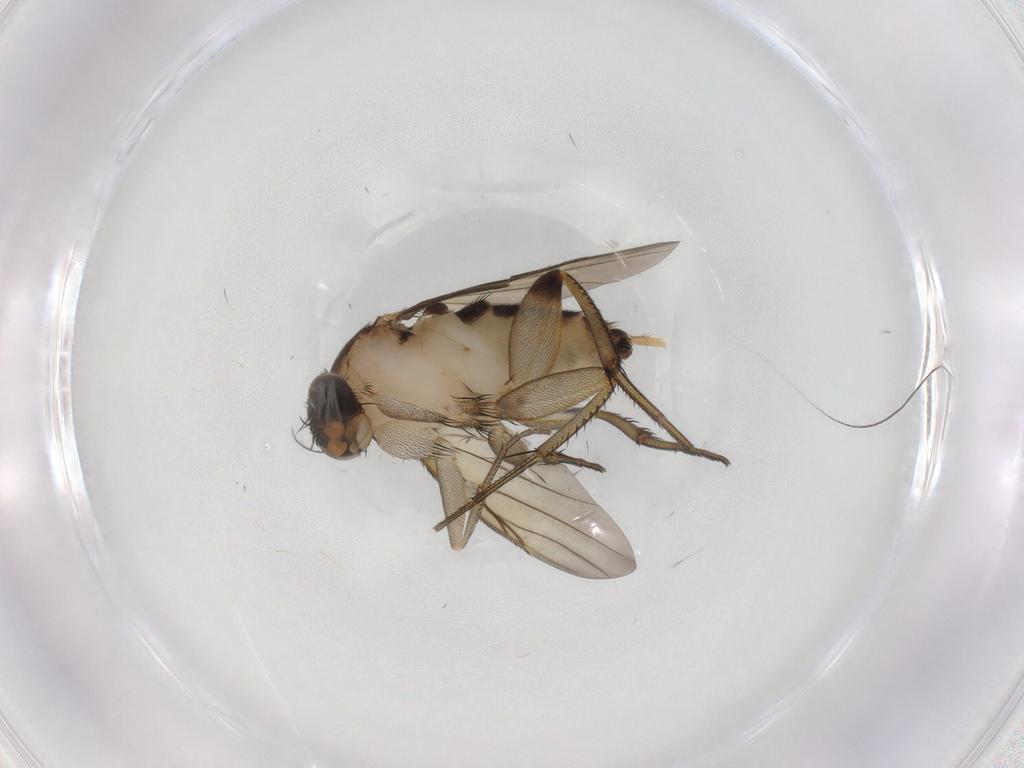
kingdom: Animalia
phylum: Arthropoda
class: Insecta
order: Diptera
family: Phoridae
